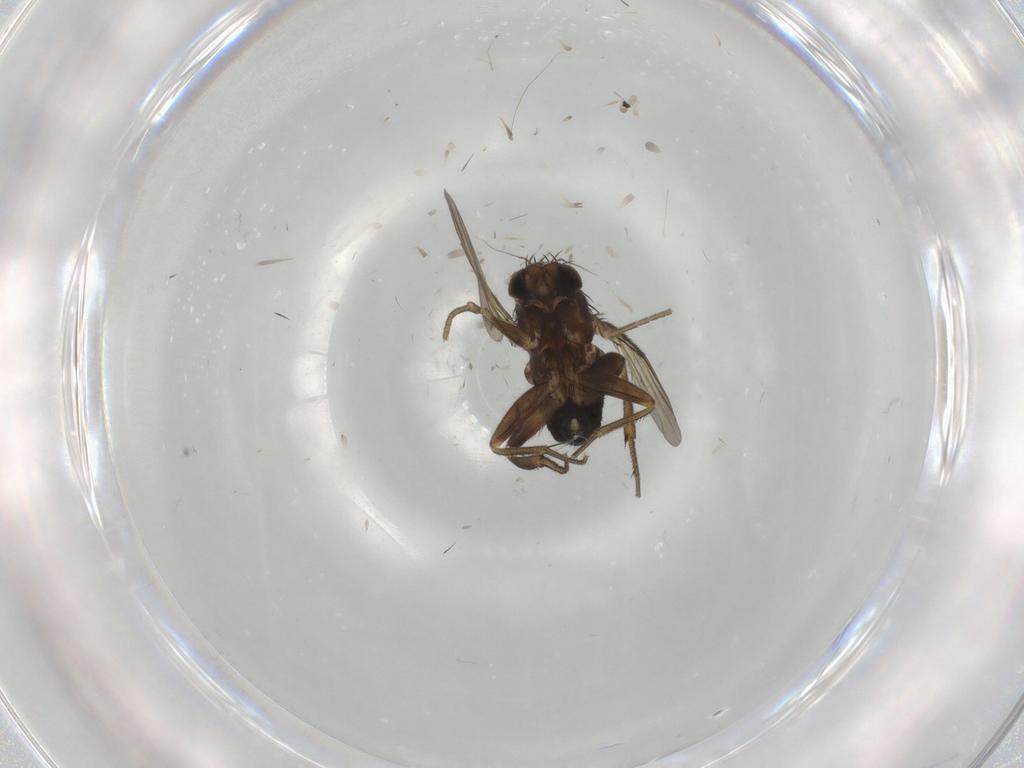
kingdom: Animalia
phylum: Arthropoda
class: Insecta
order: Diptera
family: Phoridae
